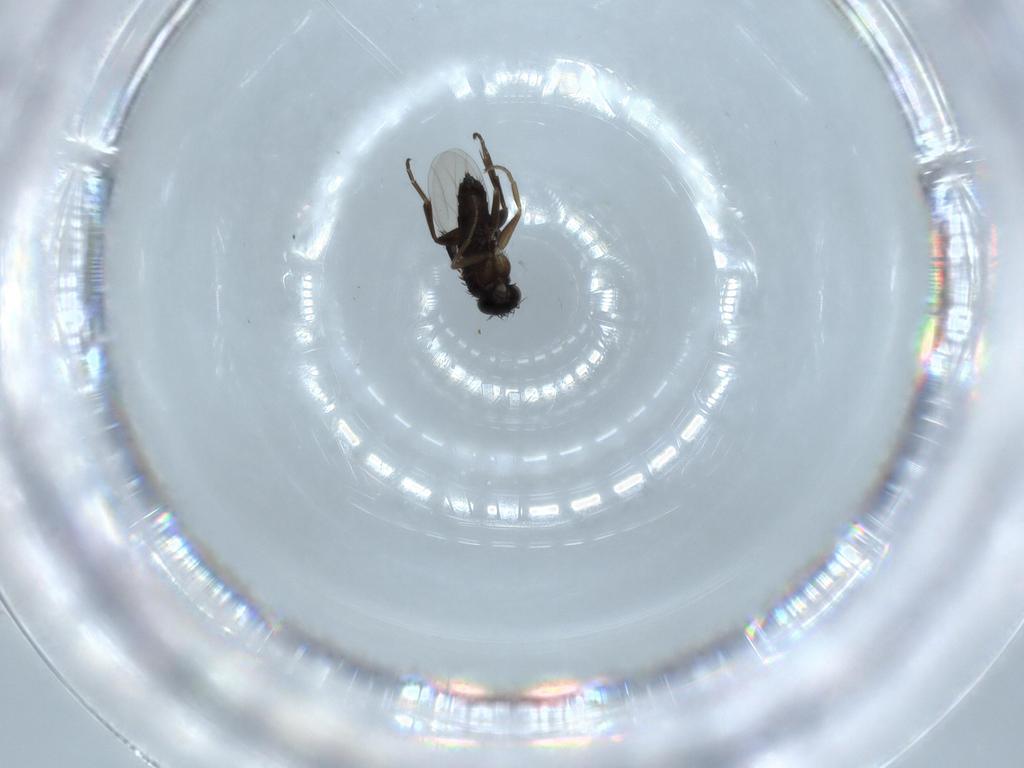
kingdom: Animalia
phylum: Arthropoda
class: Insecta
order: Diptera
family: Phoridae
